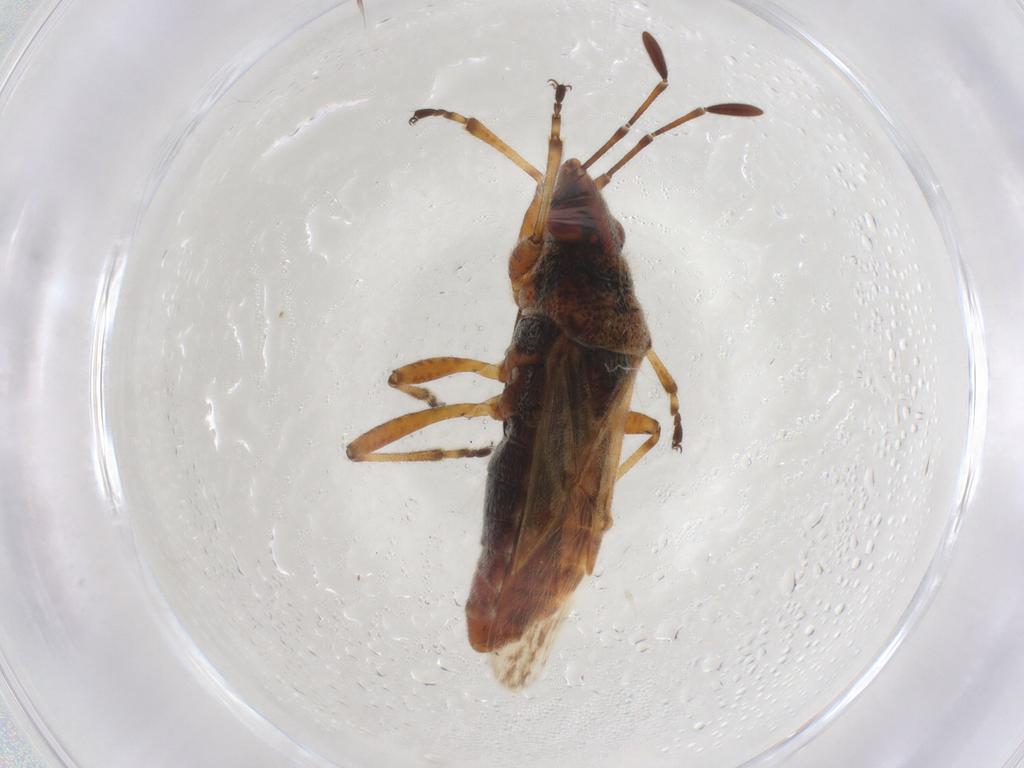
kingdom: Animalia
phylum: Arthropoda
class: Insecta
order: Hemiptera
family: Lygaeidae
